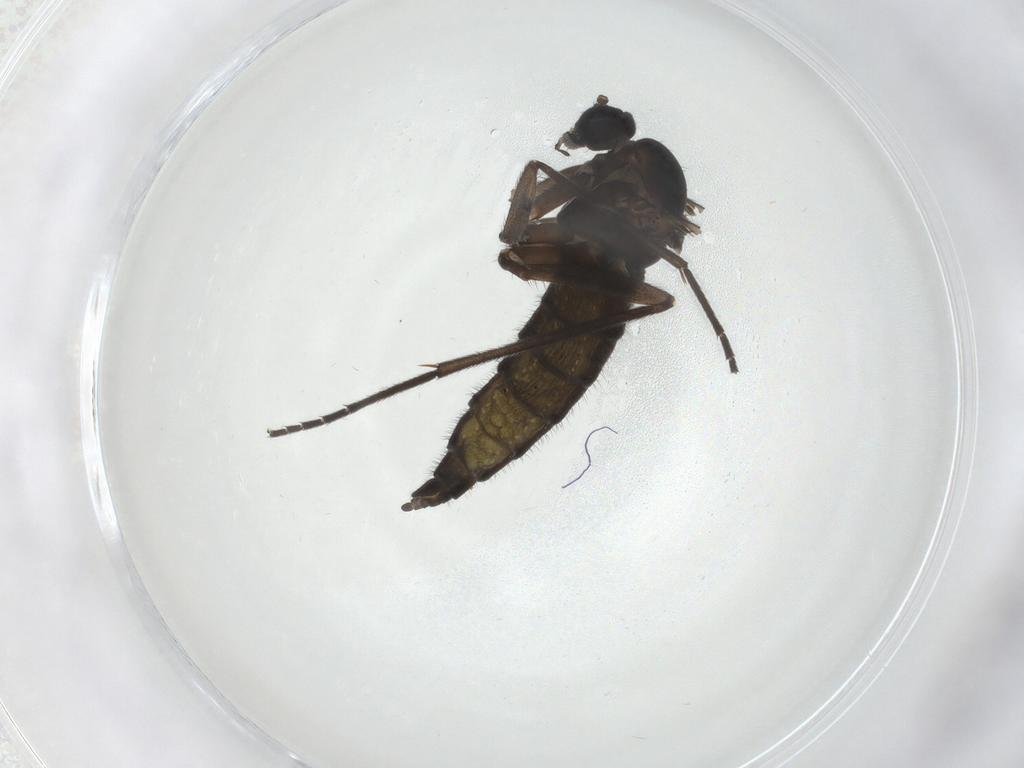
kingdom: Animalia
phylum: Arthropoda
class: Insecta
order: Diptera
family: Sciaridae
